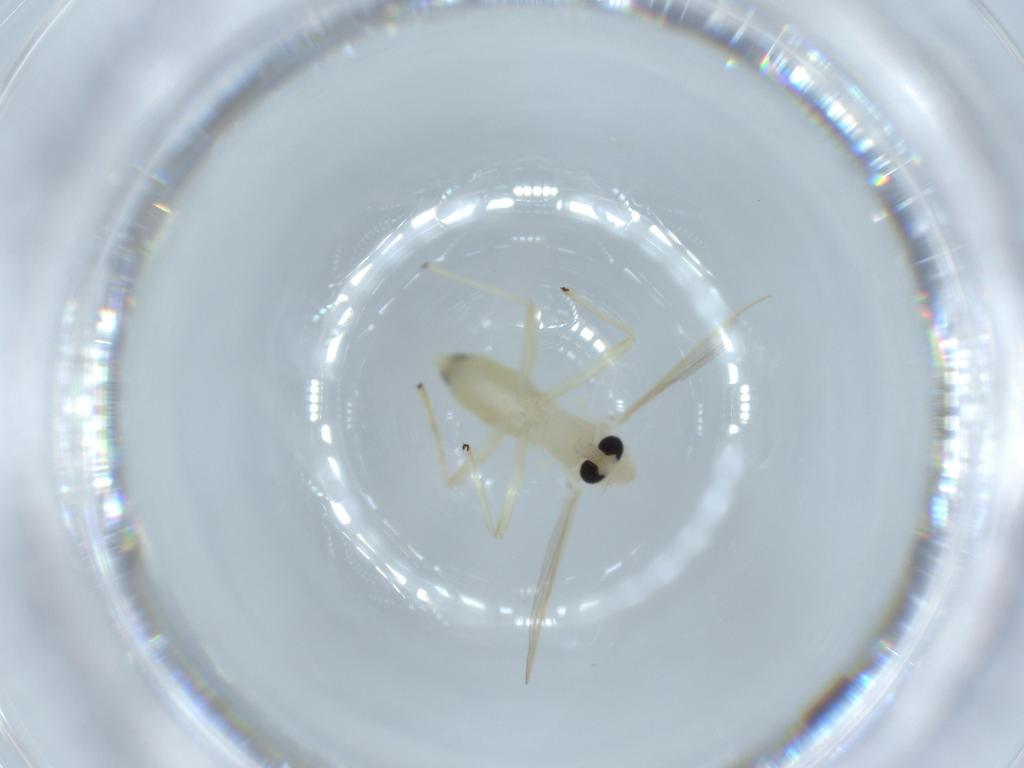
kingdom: Animalia
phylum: Arthropoda
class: Insecta
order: Diptera
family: Chironomidae
